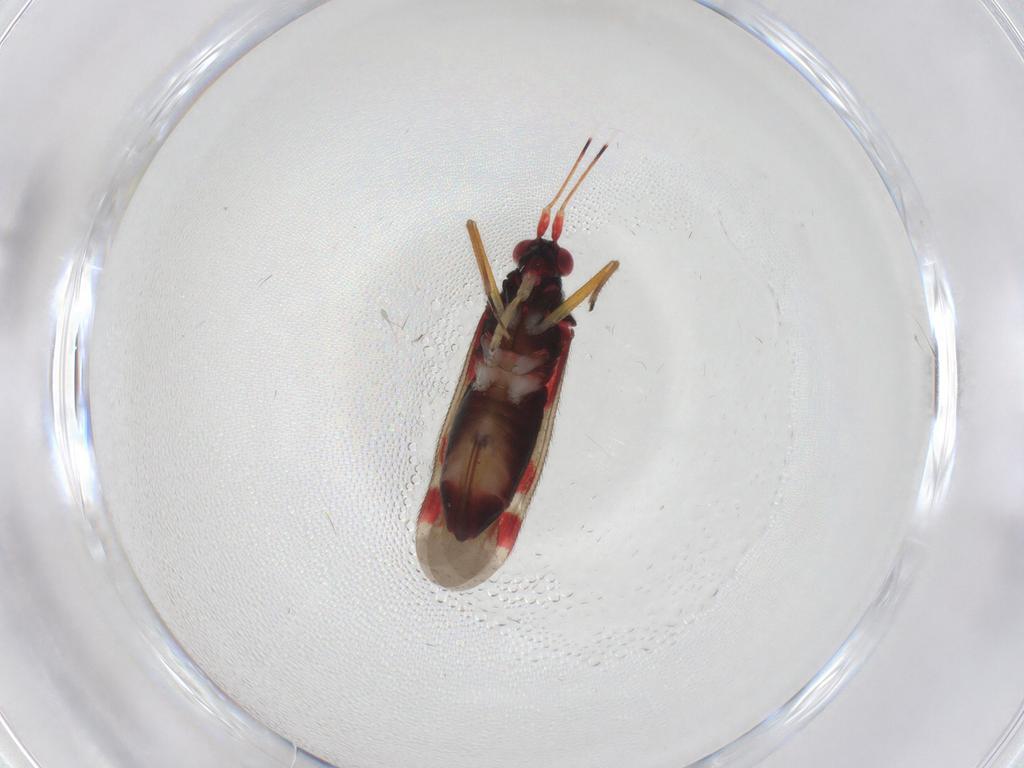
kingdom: Animalia
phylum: Arthropoda
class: Insecta
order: Hemiptera
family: Miridae
